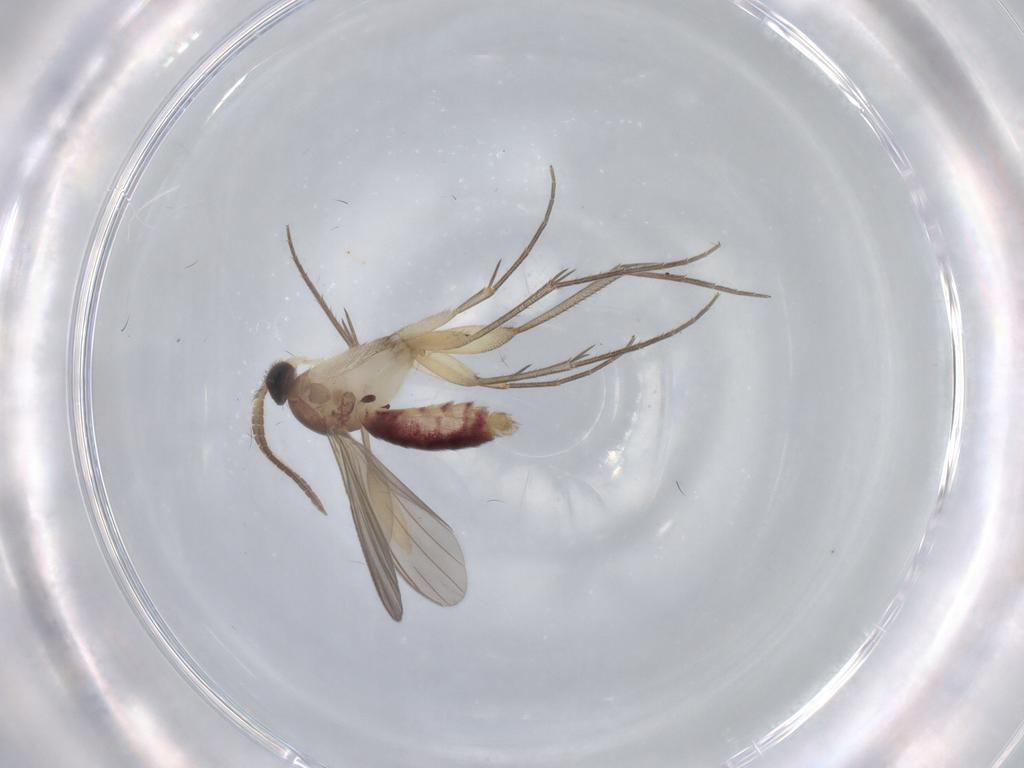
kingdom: Animalia
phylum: Arthropoda
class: Insecta
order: Diptera
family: Mycetophilidae
